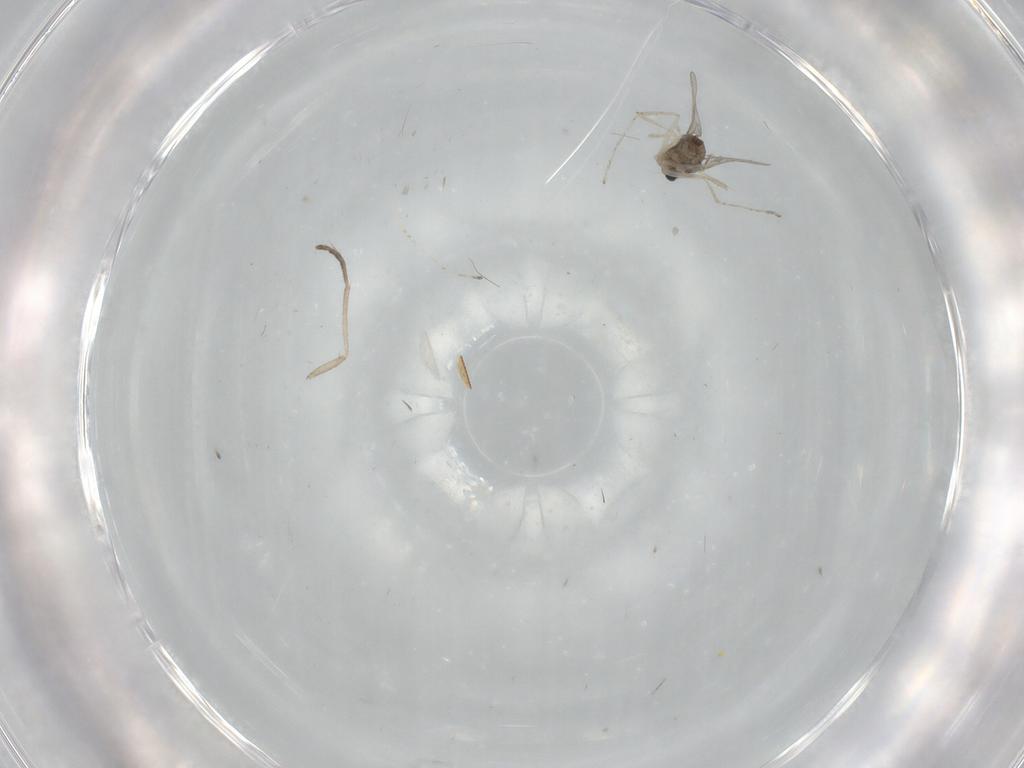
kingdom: Animalia
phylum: Arthropoda
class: Insecta
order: Diptera
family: Cecidomyiidae
